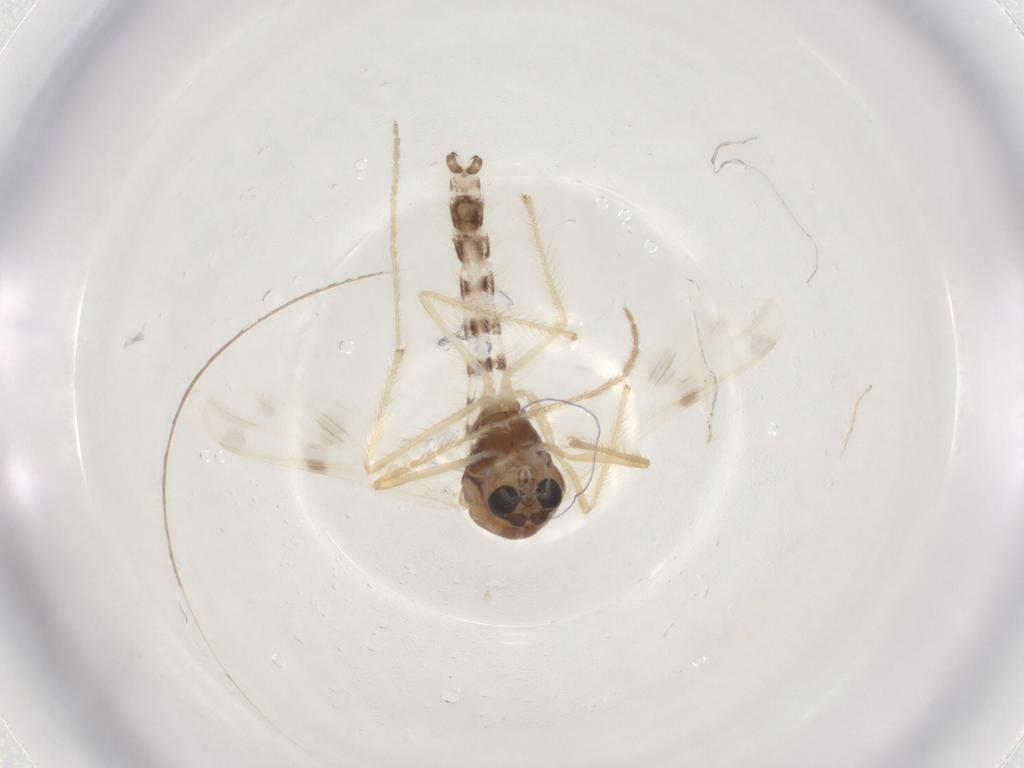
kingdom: Animalia
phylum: Arthropoda
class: Insecta
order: Diptera
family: Chironomidae
